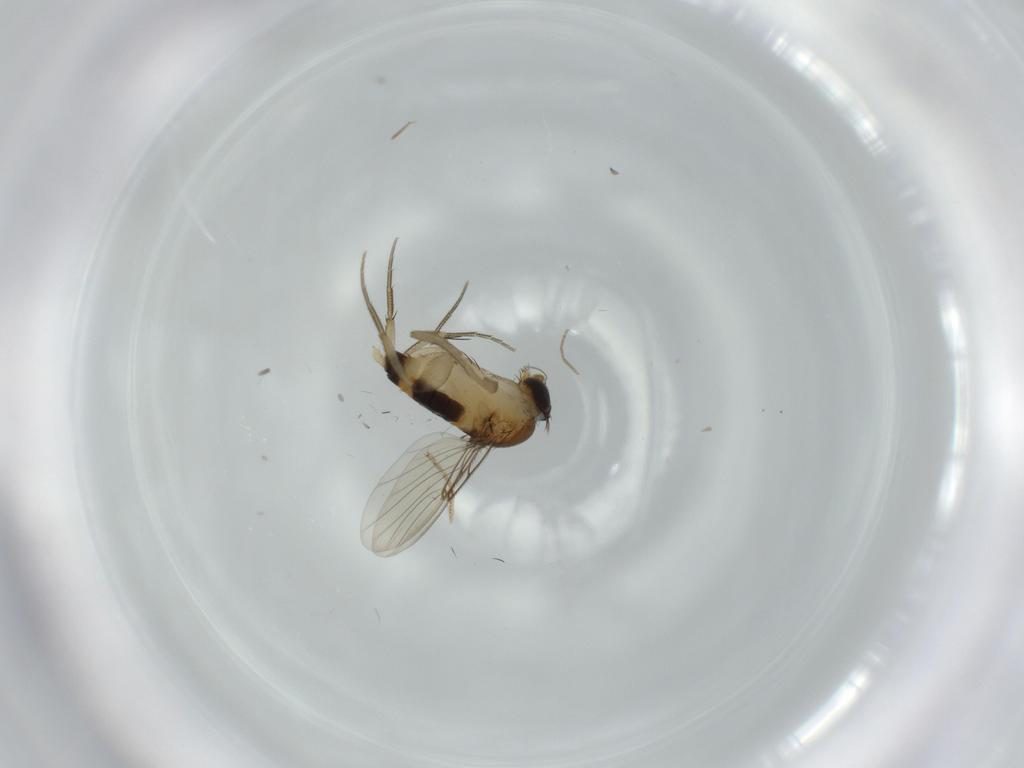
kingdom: Animalia
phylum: Arthropoda
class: Insecta
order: Diptera
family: Ceratopogonidae
